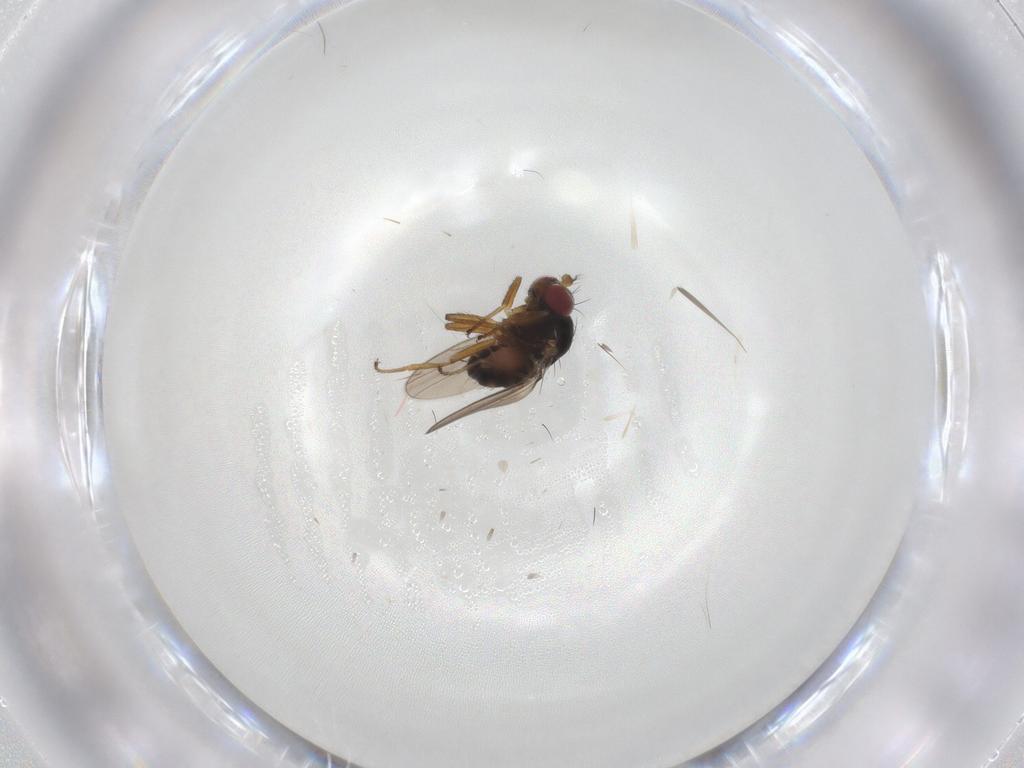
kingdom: Animalia
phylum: Arthropoda
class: Insecta
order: Diptera
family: Ephydridae
